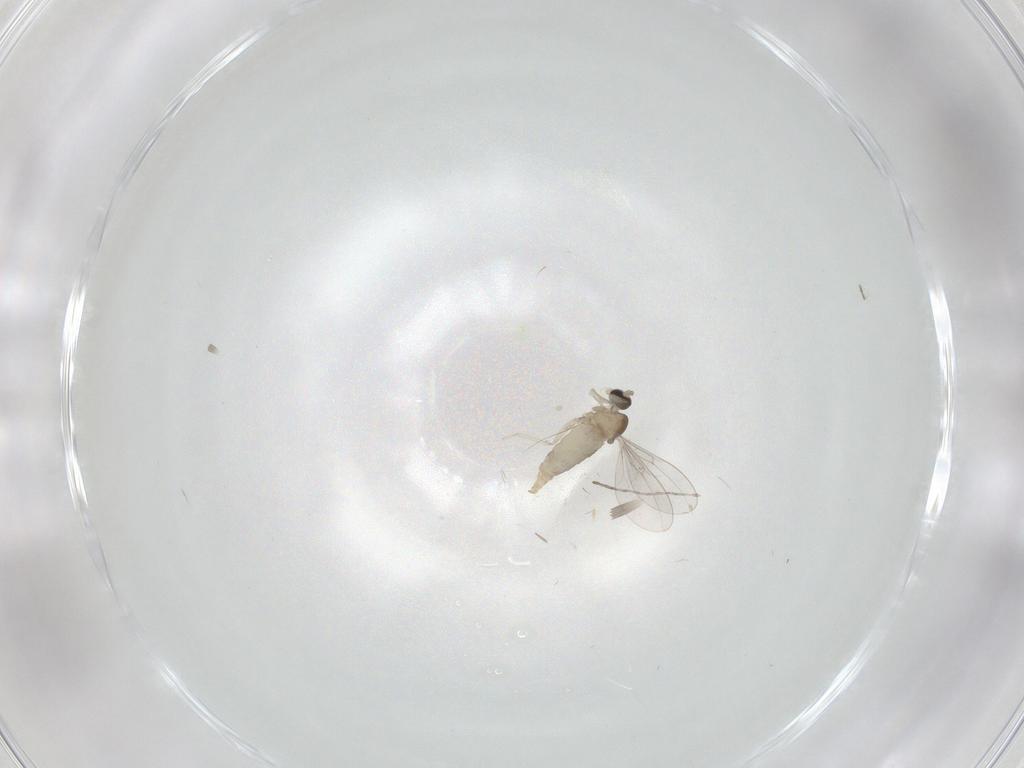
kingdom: Animalia
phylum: Arthropoda
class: Insecta
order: Diptera
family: Cecidomyiidae
